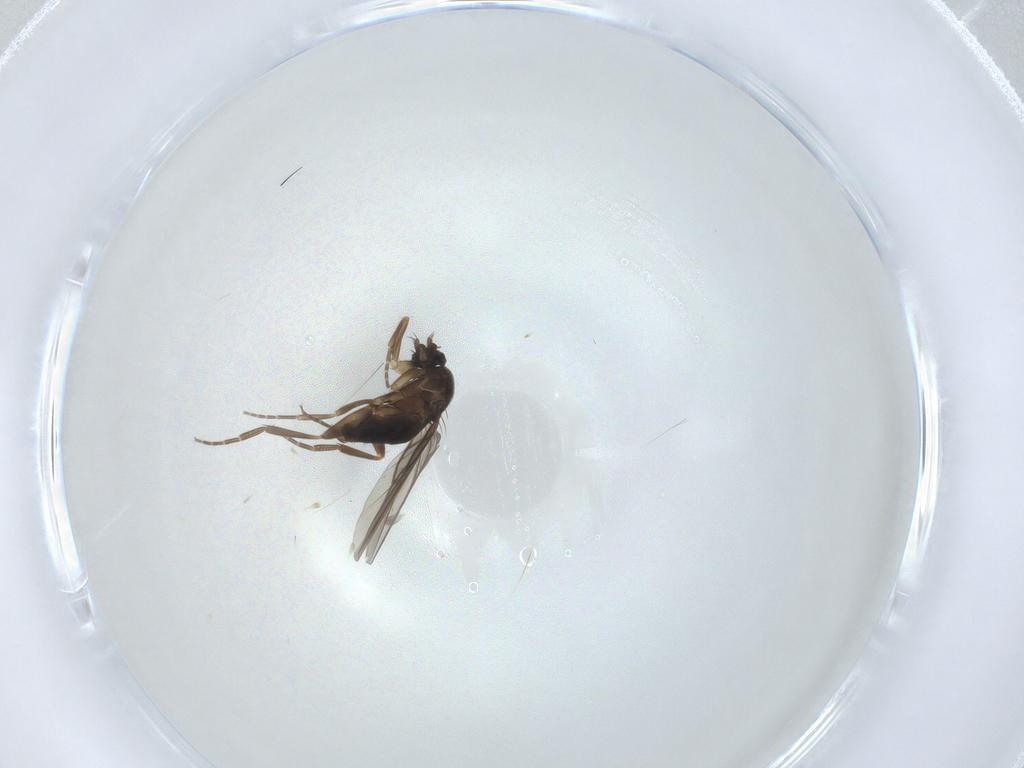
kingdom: Animalia
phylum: Arthropoda
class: Insecta
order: Diptera
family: Phoridae
